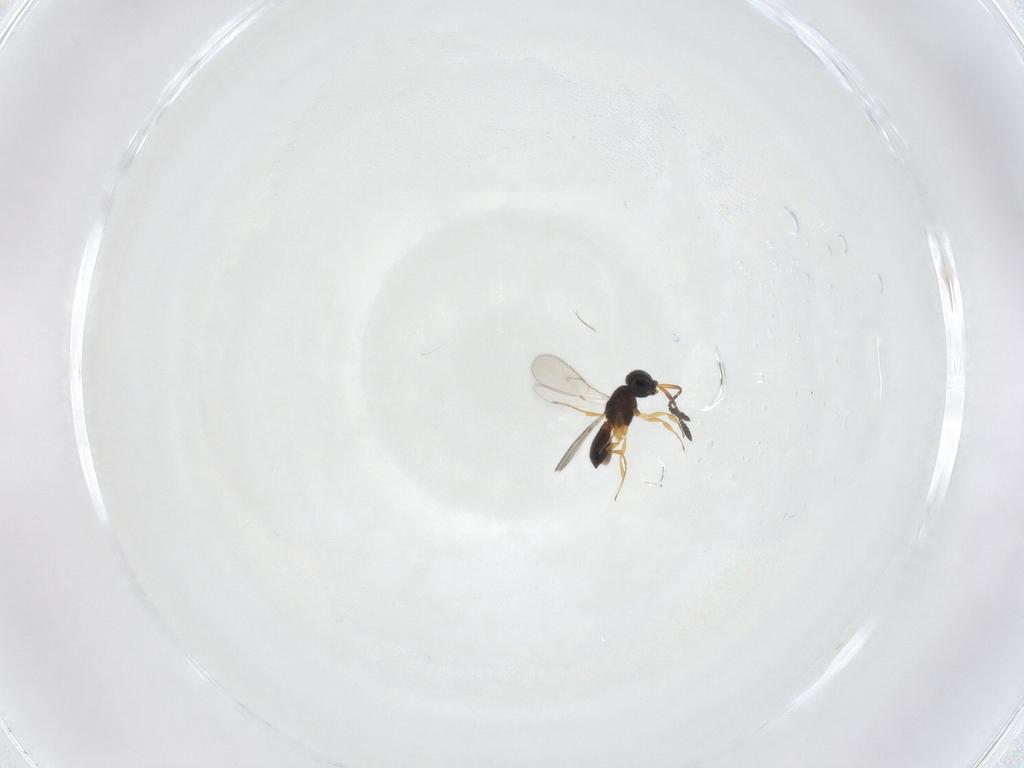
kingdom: Animalia
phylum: Arthropoda
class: Insecta
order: Hymenoptera
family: Scelionidae
